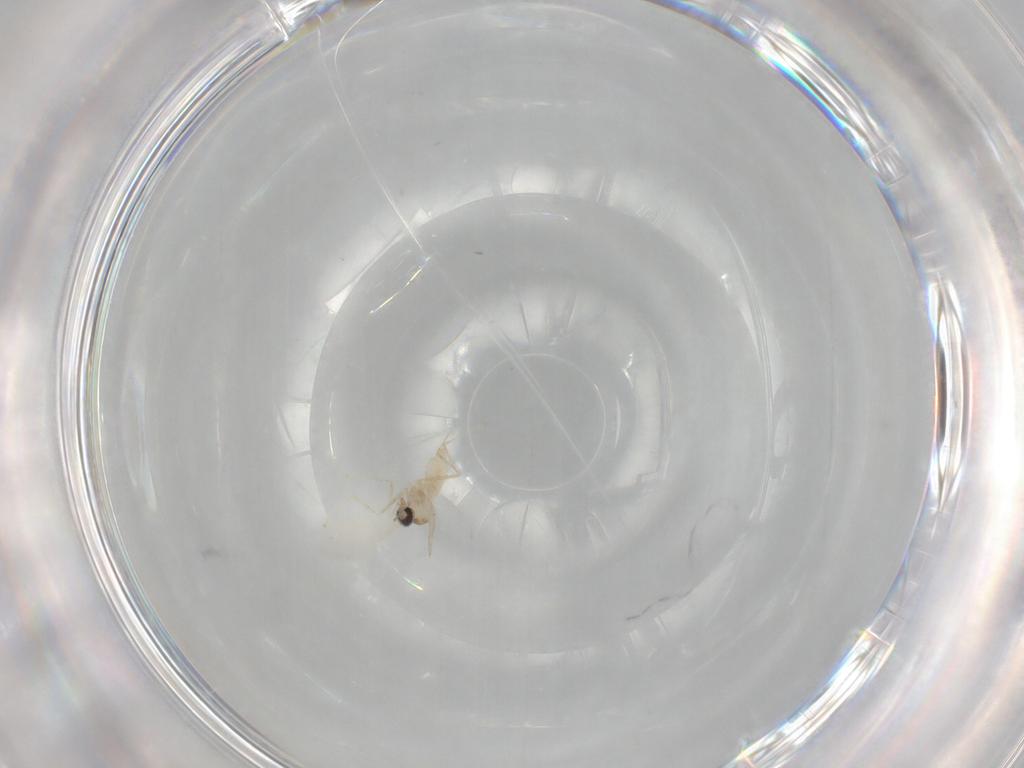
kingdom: Animalia
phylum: Arthropoda
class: Insecta
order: Diptera
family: Cecidomyiidae
